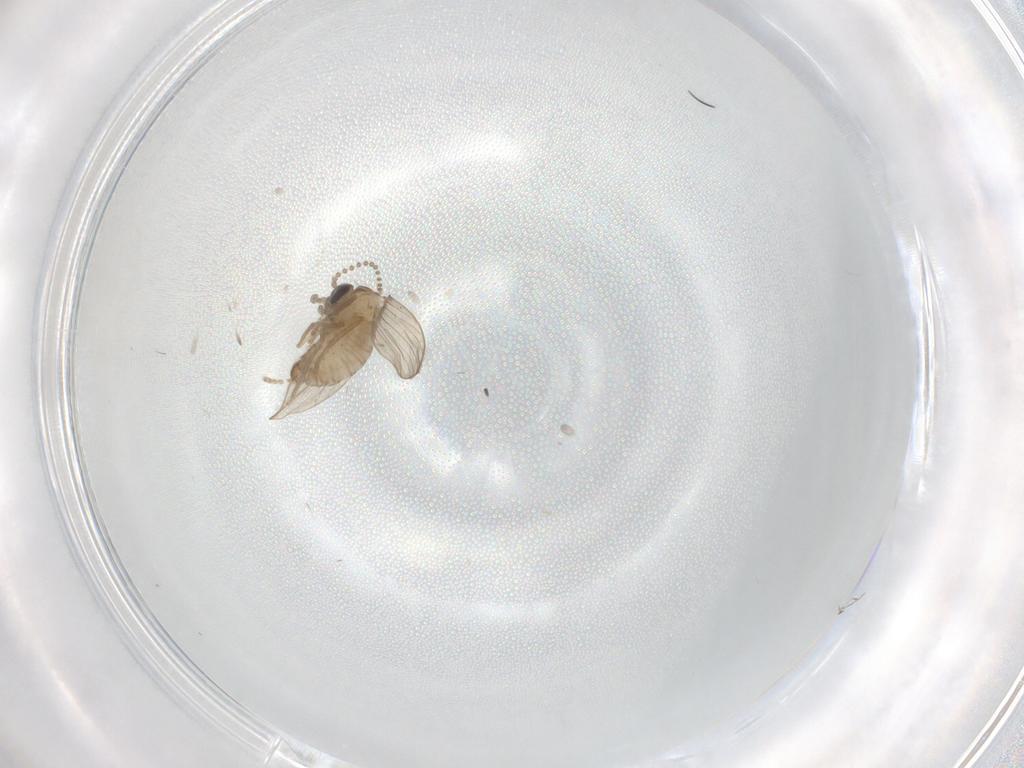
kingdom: Animalia
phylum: Arthropoda
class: Insecta
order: Diptera
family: Psychodidae
